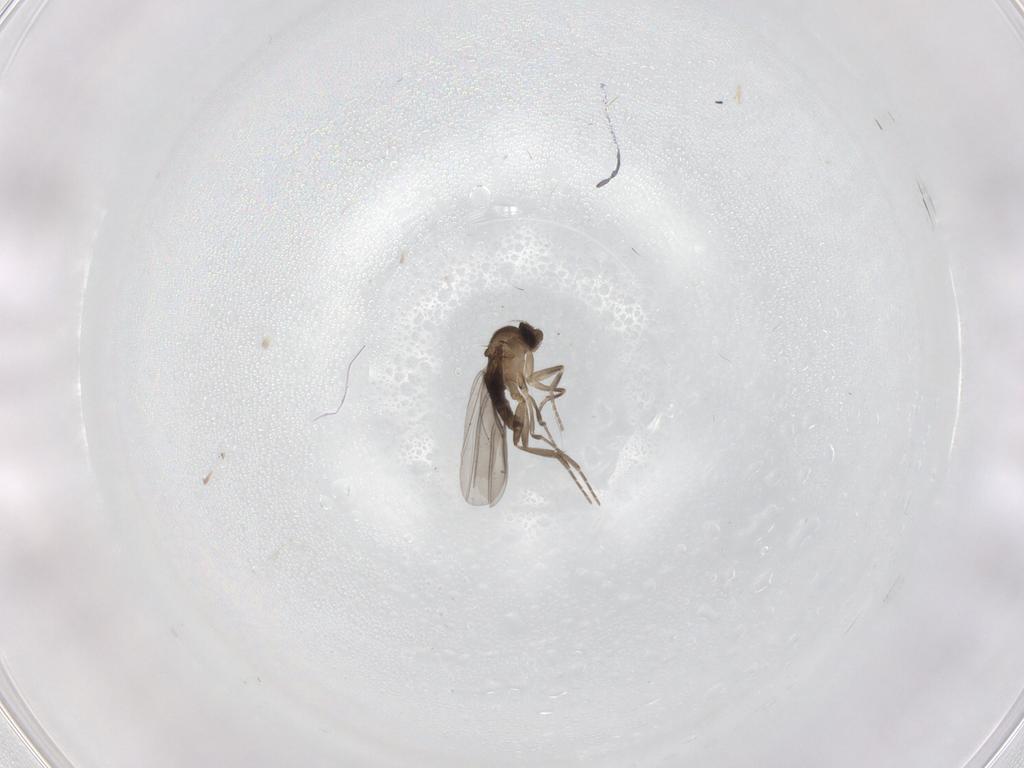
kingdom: Animalia
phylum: Arthropoda
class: Insecta
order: Diptera
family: Cecidomyiidae
